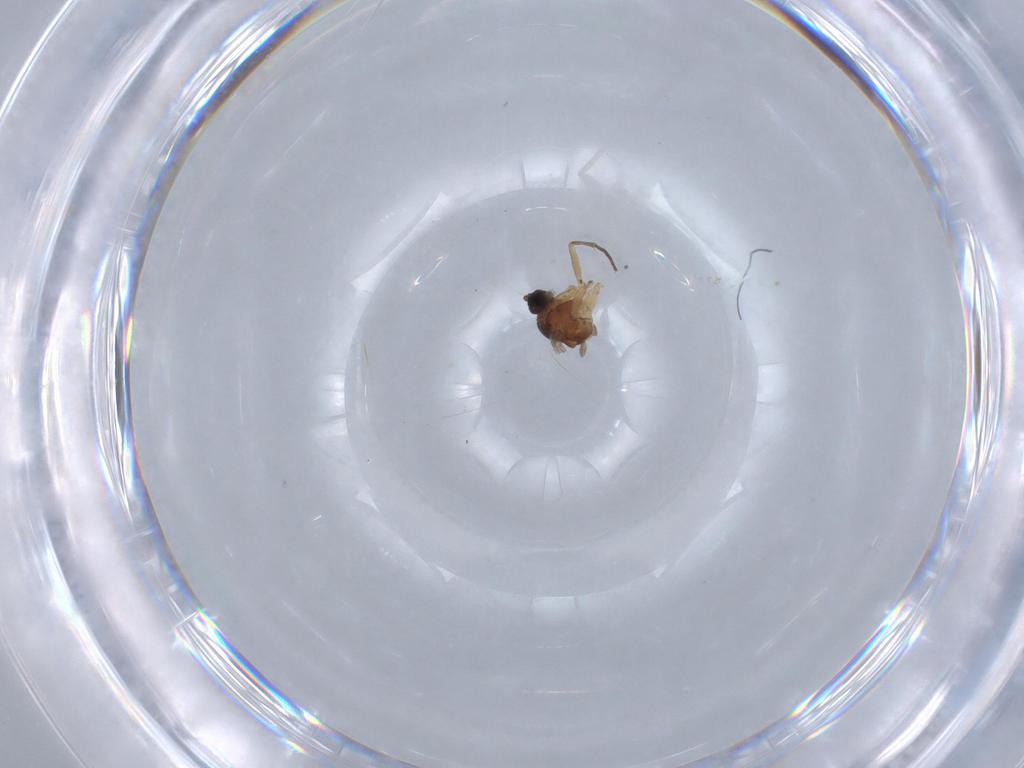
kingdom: Animalia
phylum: Arthropoda
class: Insecta
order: Diptera
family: Sciaridae
